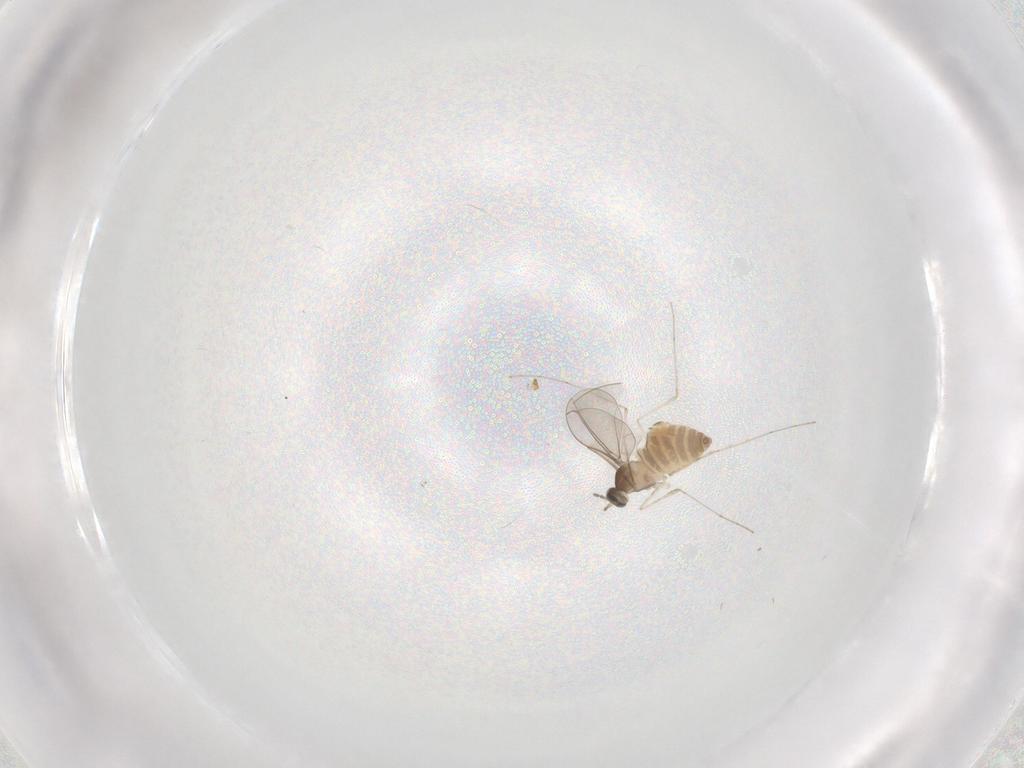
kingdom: Animalia
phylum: Arthropoda
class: Insecta
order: Diptera
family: Cecidomyiidae
